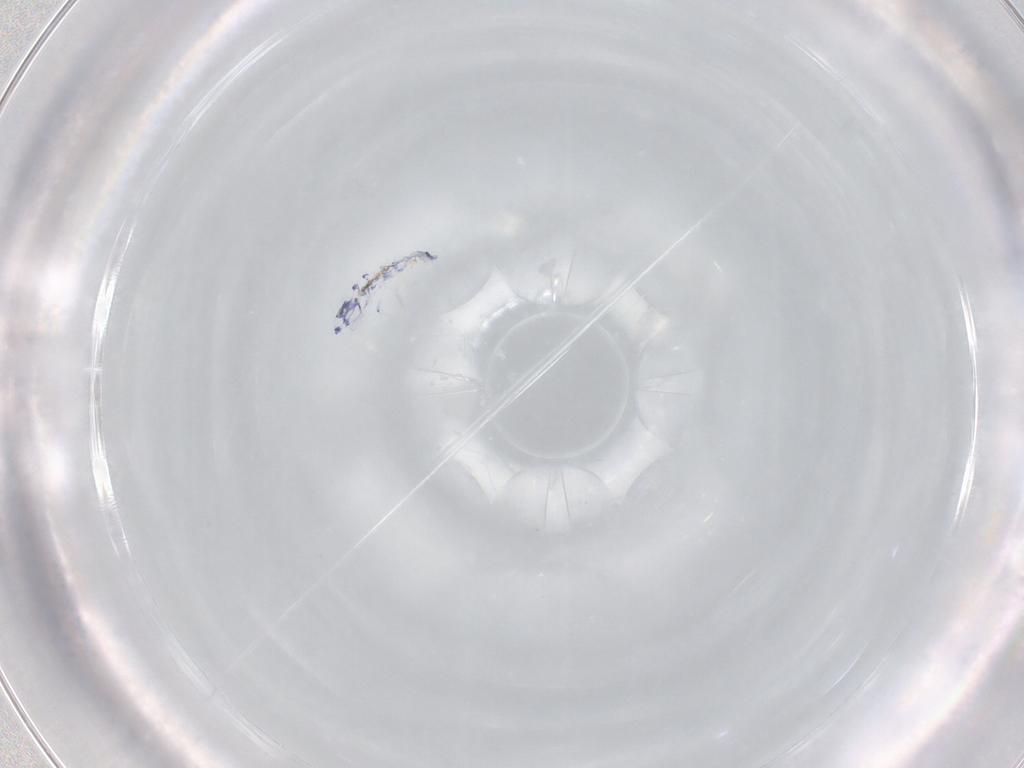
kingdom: Animalia
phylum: Arthropoda
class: Collembola
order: Entomobryomorpha
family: Entomobryidae
